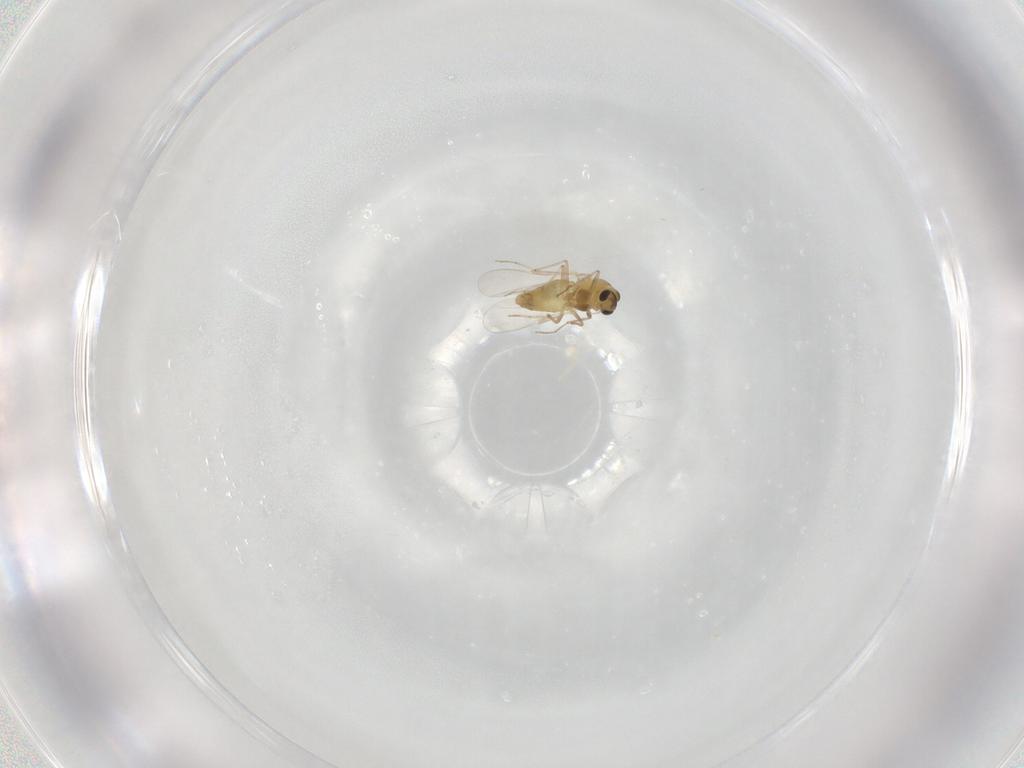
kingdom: Animalia
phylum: Arthropoda
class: Insecta
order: Diptera
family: Chironomidae
